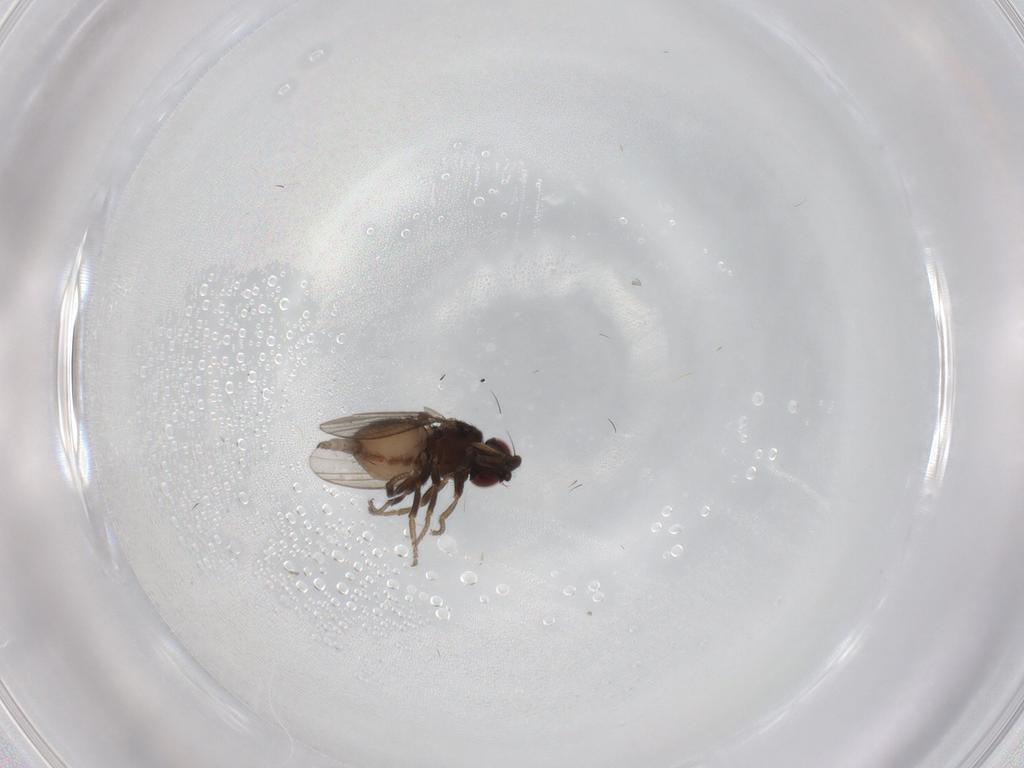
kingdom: Animalia
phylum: Arthropoda
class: Insecta
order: Diptera
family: Milichiidae
